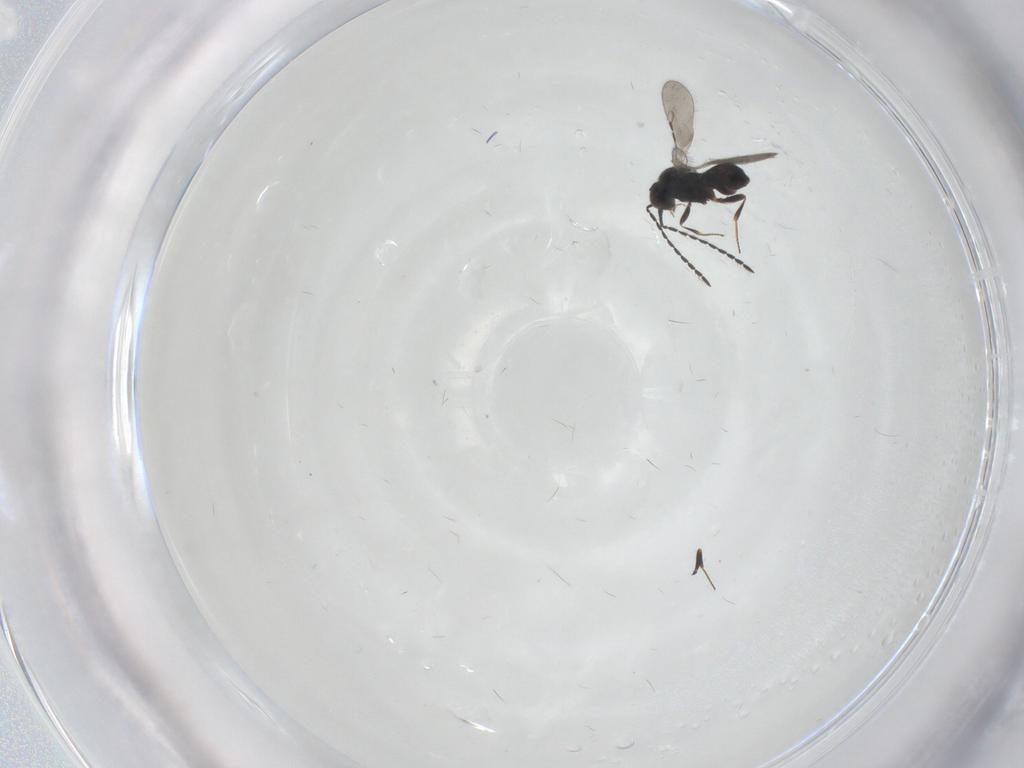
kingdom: Animalia
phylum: Arthropoda
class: Insecta
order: Hymenoptera
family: Ceraphronidae
